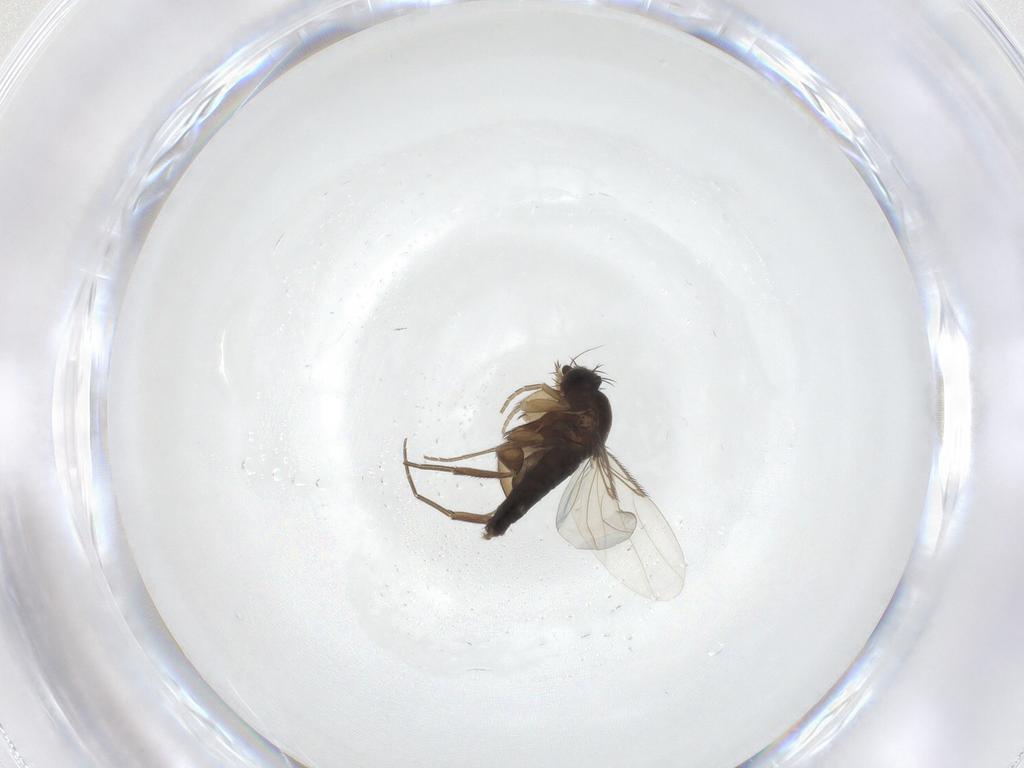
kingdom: Animalia
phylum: Arthropoda
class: Insecta
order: Diptera
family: Phoridae
